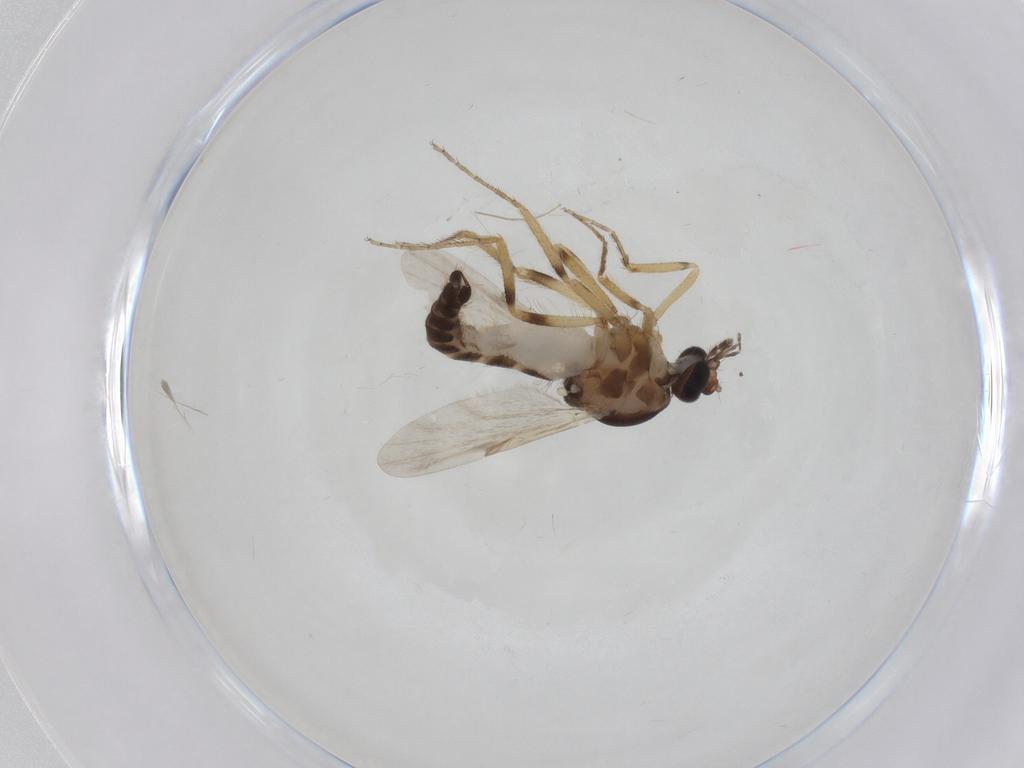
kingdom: Animalia
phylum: Arthropoda
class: Insecta
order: Diptera
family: Ceratopogonidae
